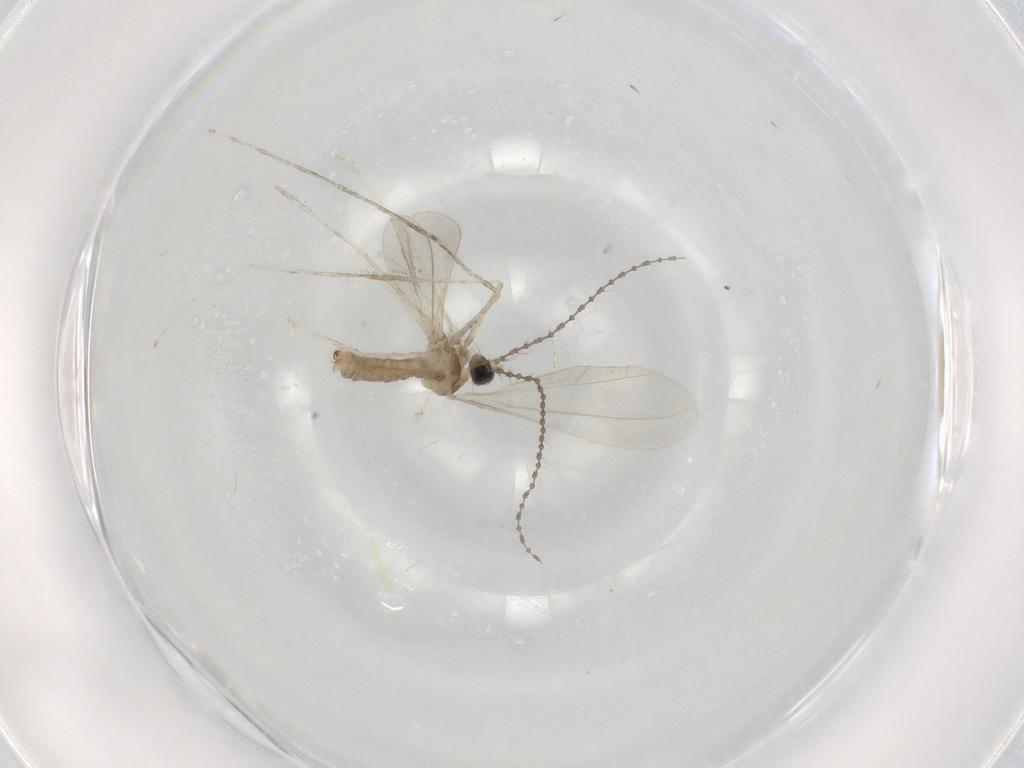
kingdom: Animalia
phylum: Arthropoda
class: Insecta
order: Diptera
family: Cecidomyiidae
